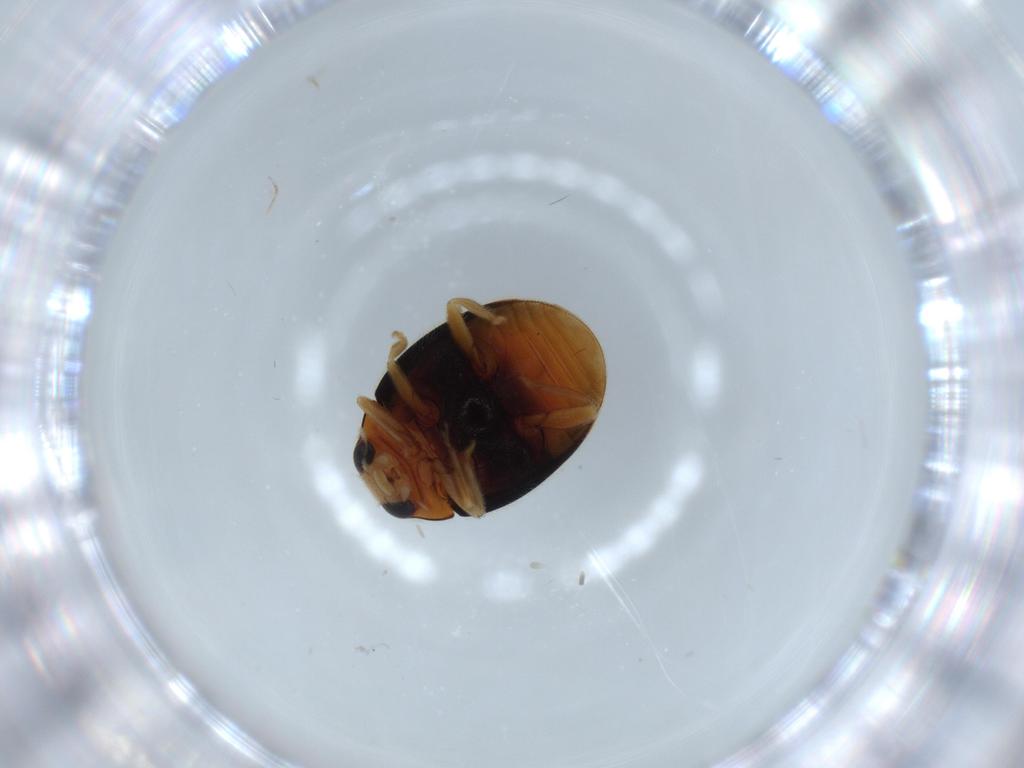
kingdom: Animalia
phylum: Arthropoda
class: Insecta
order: Coleoptera
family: Coccinellidae
